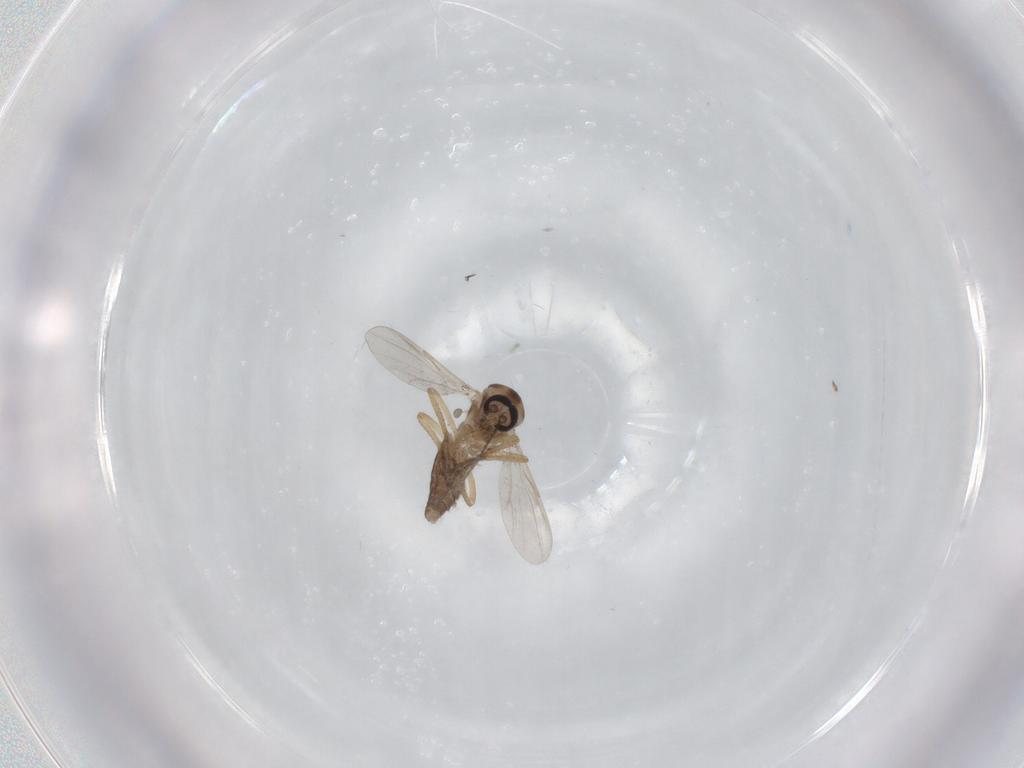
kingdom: Animalia
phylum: Arthropoda
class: Insecta
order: Diptera
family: Ceratopogonidae
